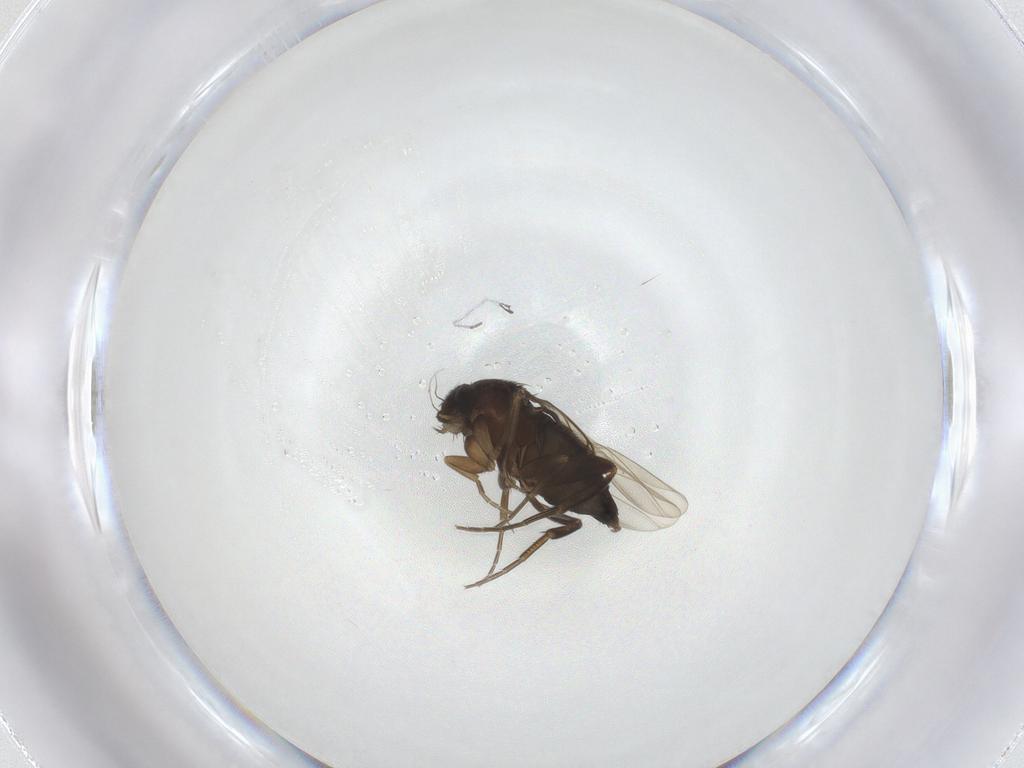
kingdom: Animalia
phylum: Arthropoda
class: Insecta
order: Diptera
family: Phoridae
